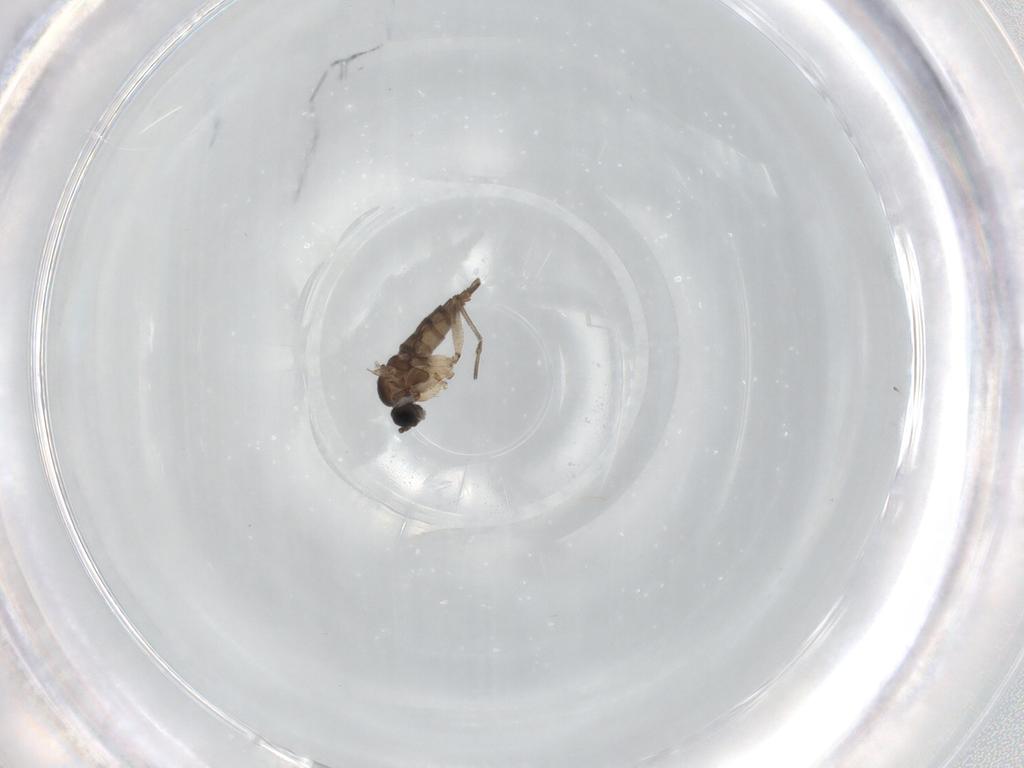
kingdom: Animalia
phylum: Arthropoda
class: Insecta
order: Diptera
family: Sciaridae
